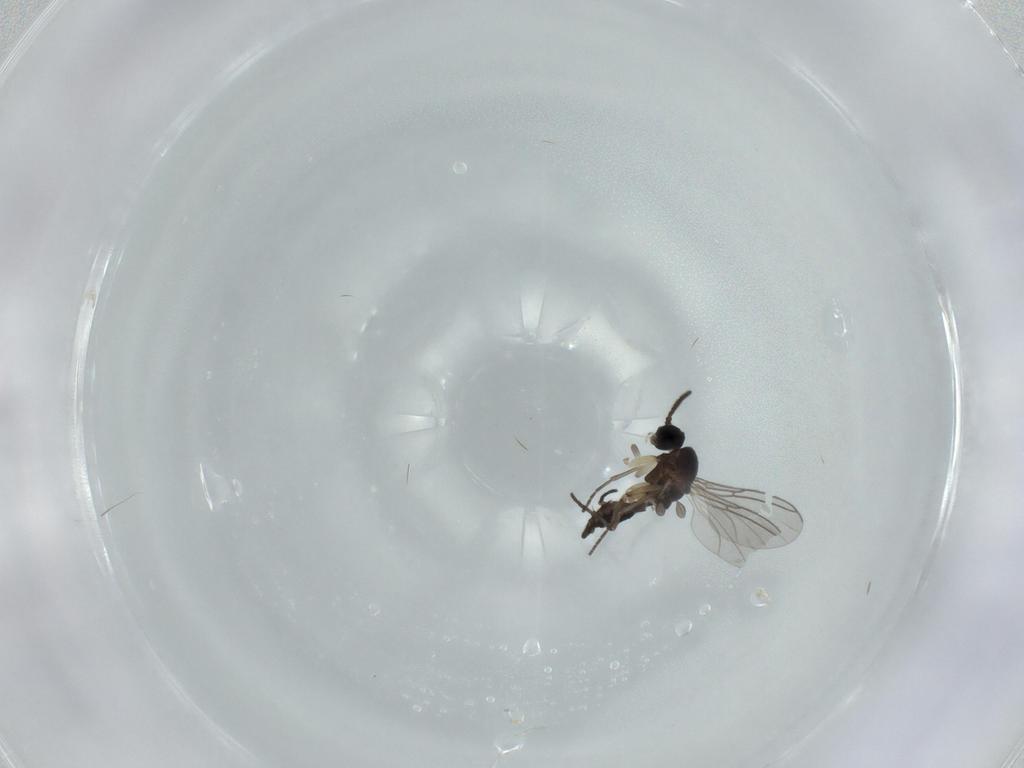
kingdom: Animalia
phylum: Arthropoda
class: Insecta
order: Diptera
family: Sciaridae
